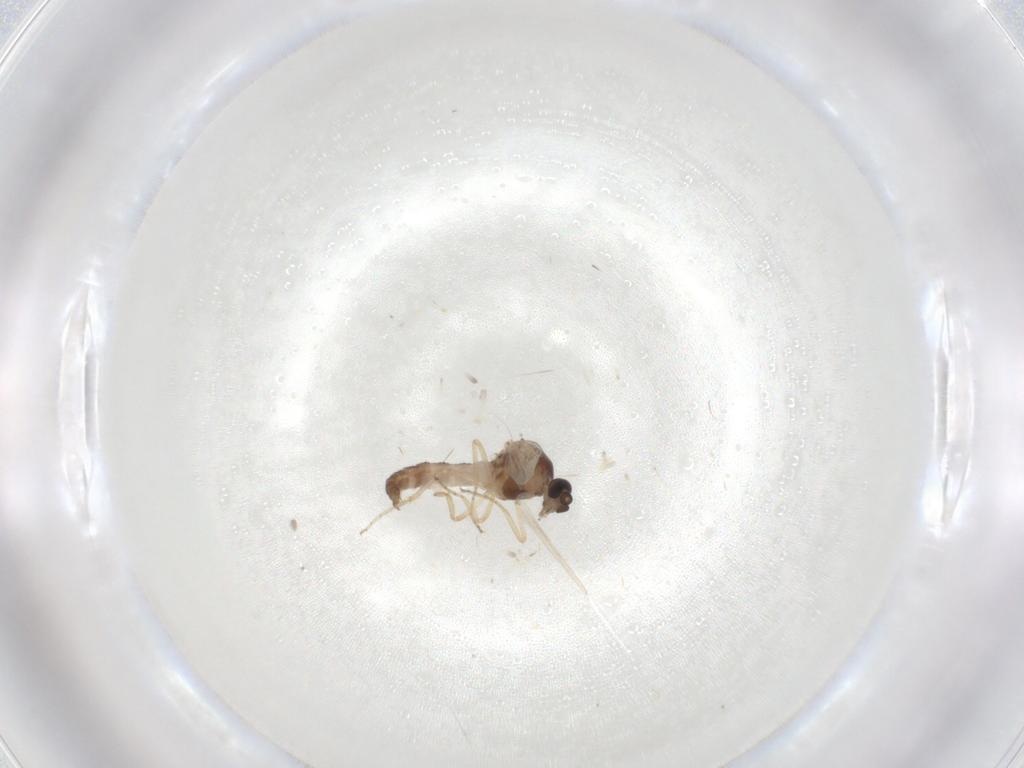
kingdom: Animalia
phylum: Arthropoda
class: Insecta
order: Diptera
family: Ceratopogonidae
